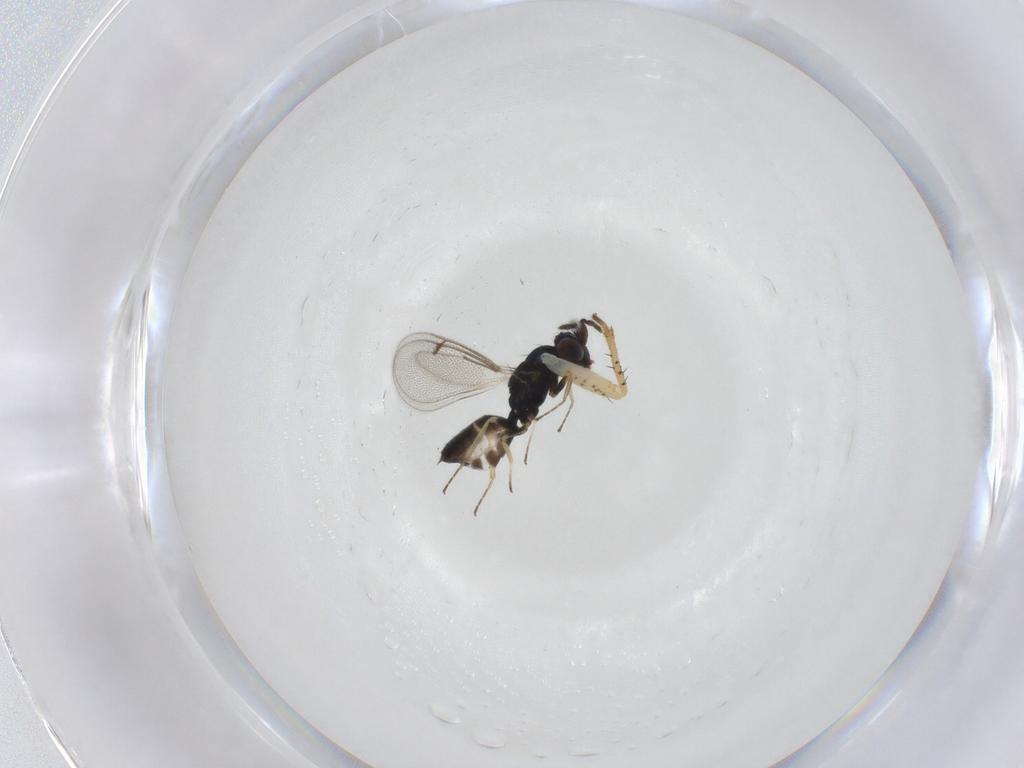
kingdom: Animalia
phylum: Arthropoda
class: Insecta
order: Hymenoptera
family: Eulophidae
